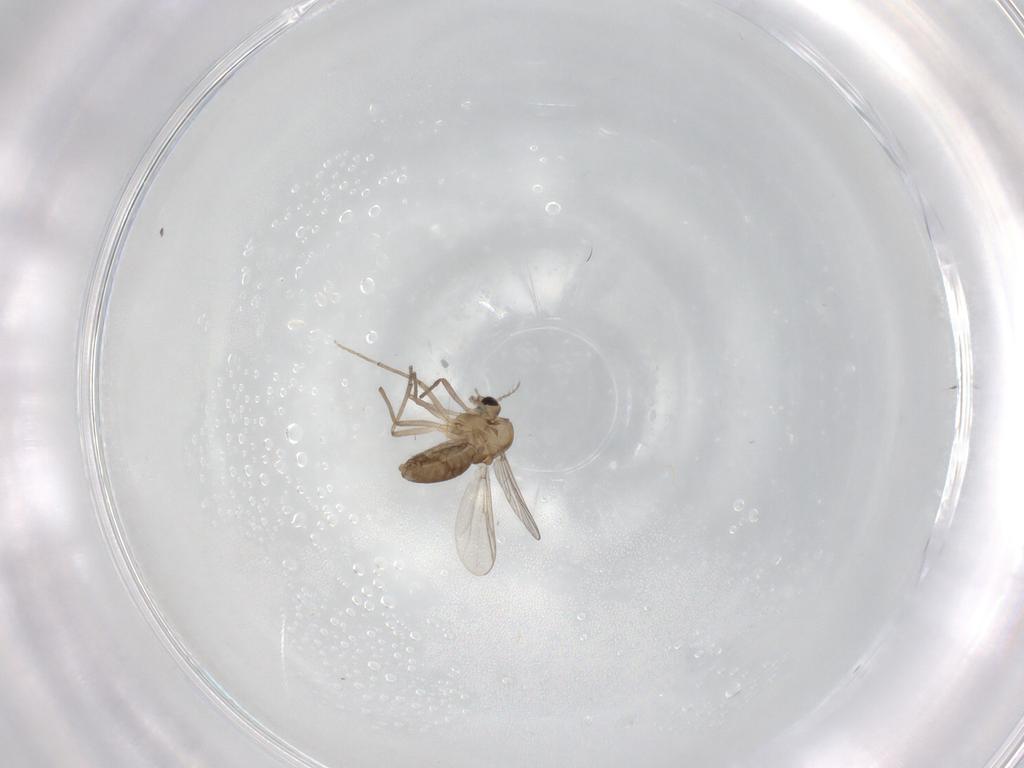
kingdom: Animalia
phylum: Arthropoda
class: Insecta
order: Diptera
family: Chironomidae
